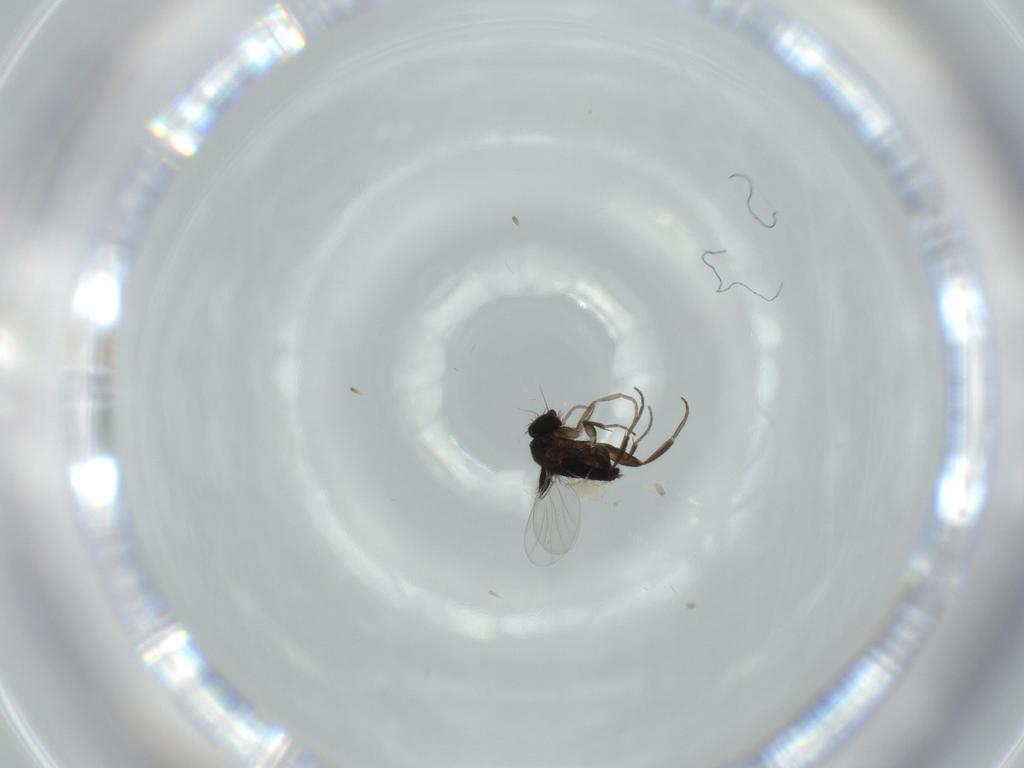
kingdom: Animalia
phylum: Arthropoda
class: Insecta
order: Diptera
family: Phoridae
